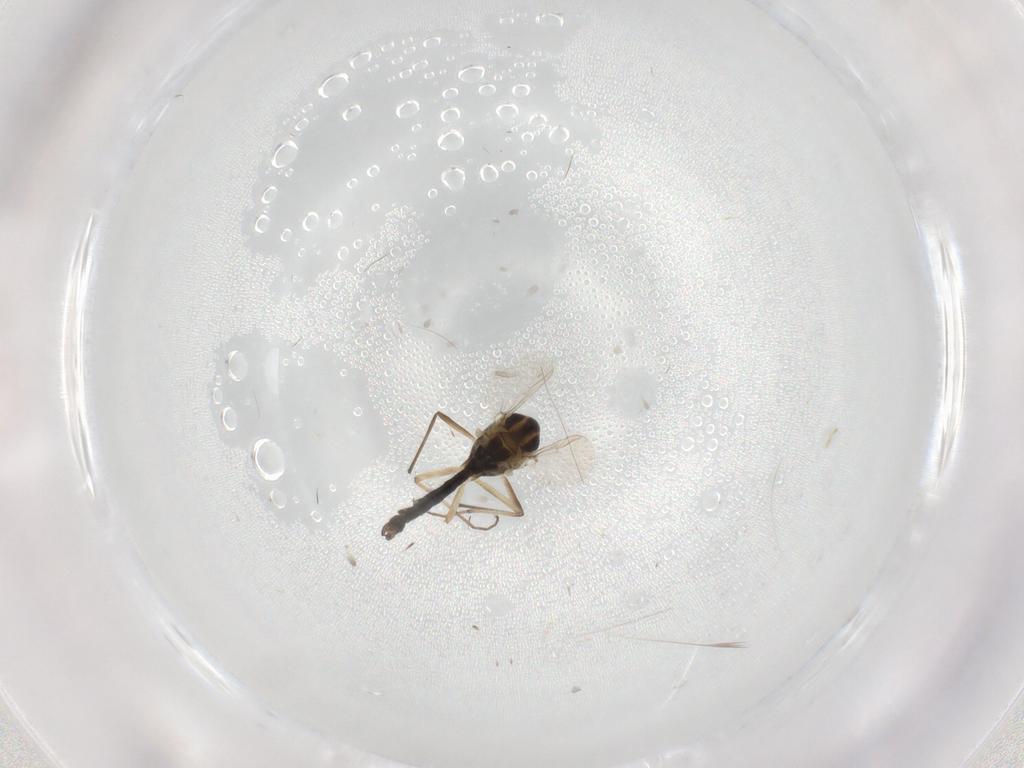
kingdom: Animalia
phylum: Arthropoda
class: Insecta
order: Diptera
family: Chironomidae
